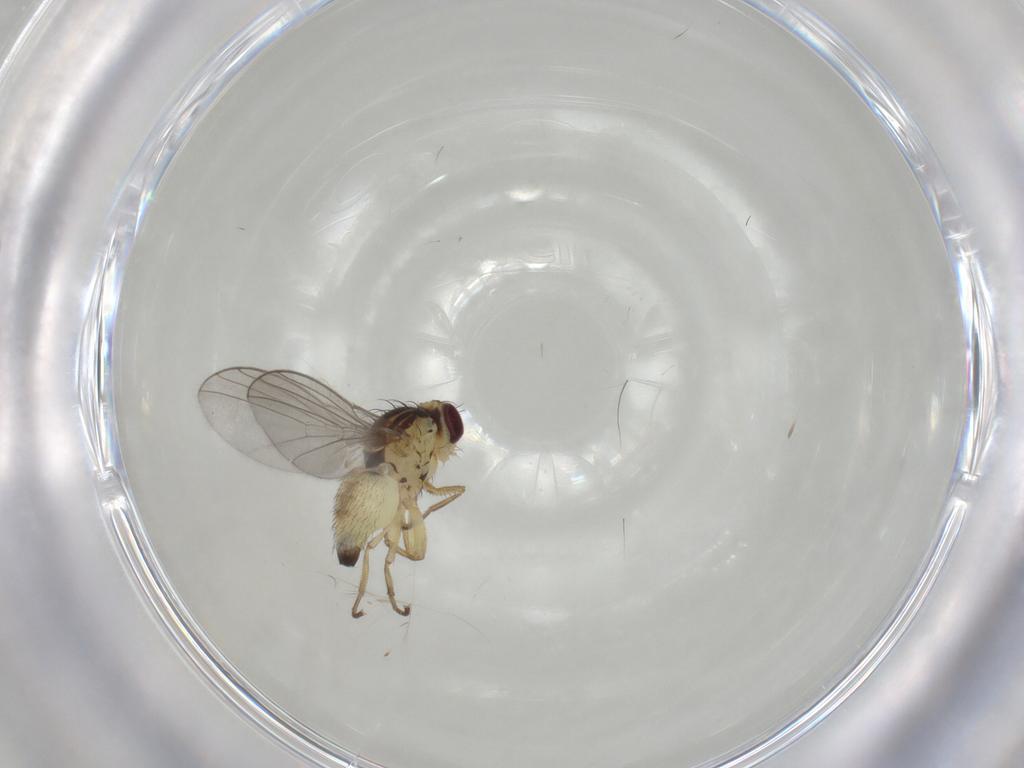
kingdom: Animalia
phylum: Arthropoda
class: Insecta
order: Diptera
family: Agromyzidae
